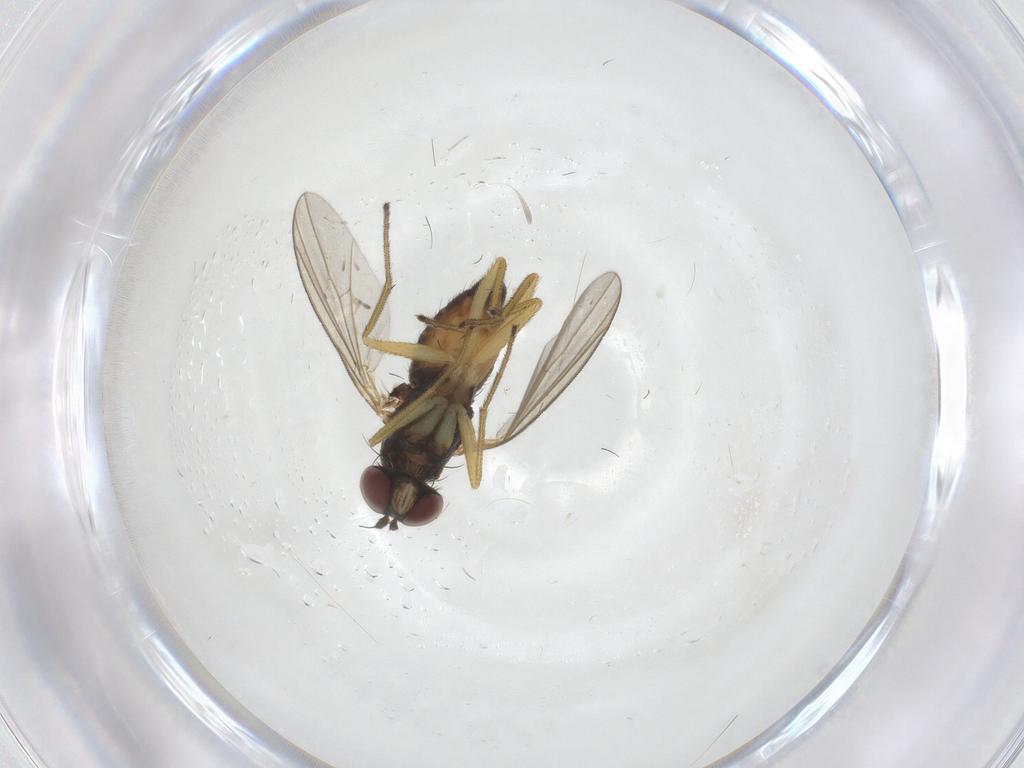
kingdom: Animalia
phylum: Arthropoda
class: Insecta
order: Diptera
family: Dolichopodidae
